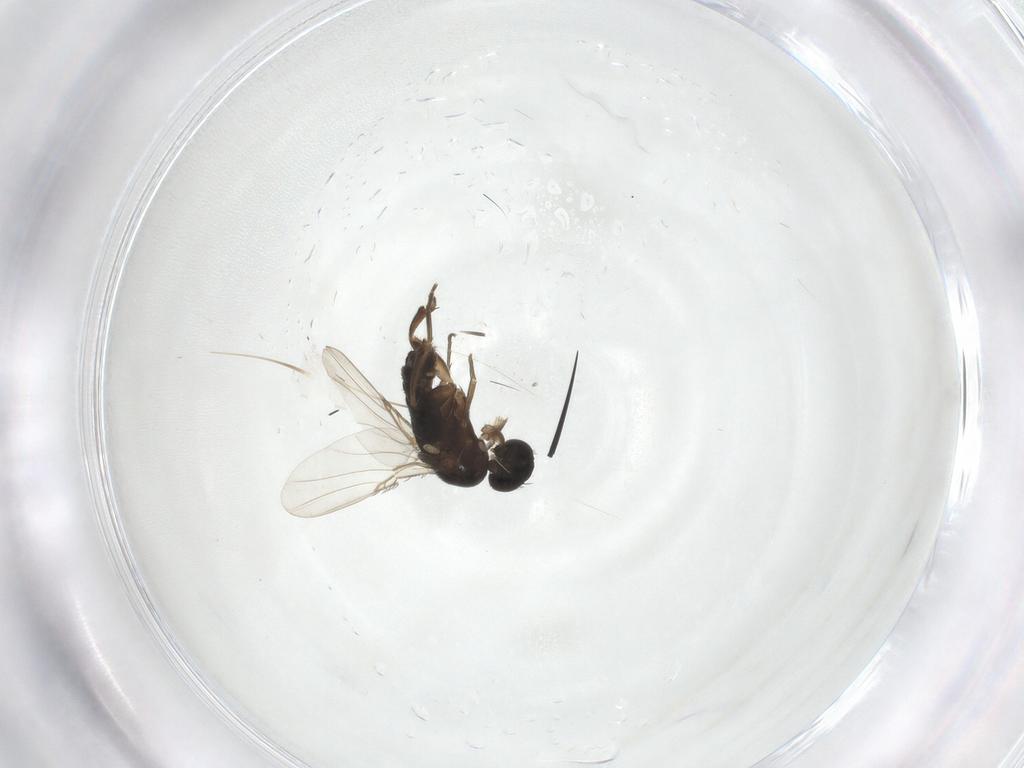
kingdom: Animalia
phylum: Arthropoda
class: Insecta
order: Diptera
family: Phoridae
